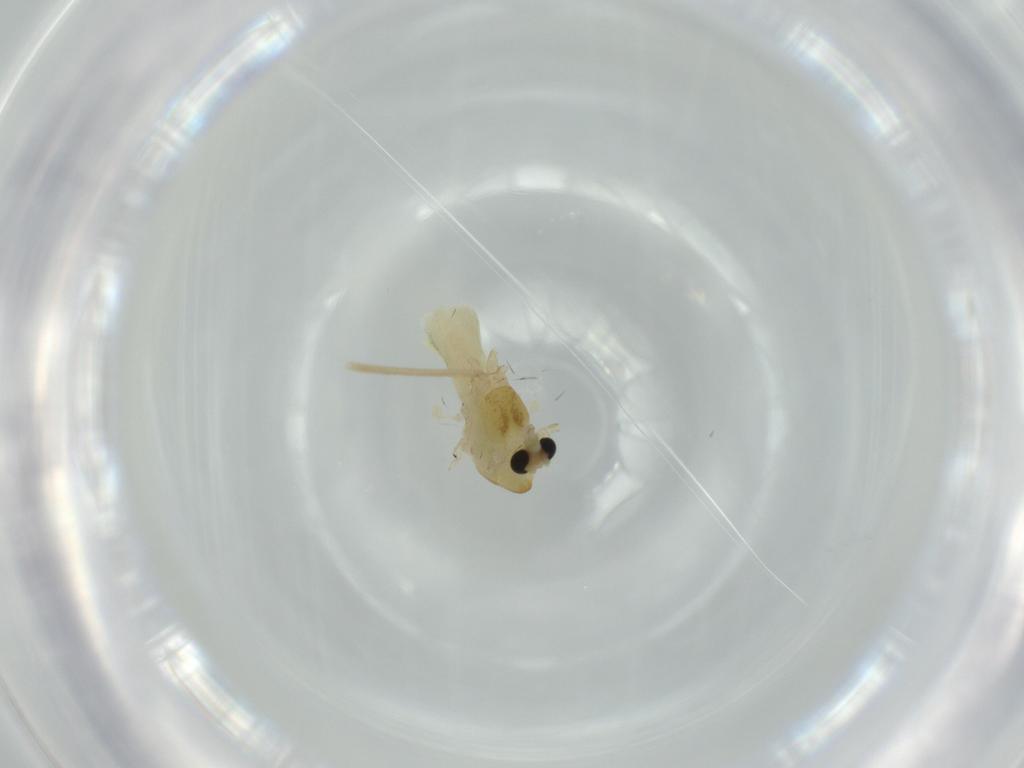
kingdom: Animalia
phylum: Arthropoda
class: Insecta
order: Diptera
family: Chironomidae
